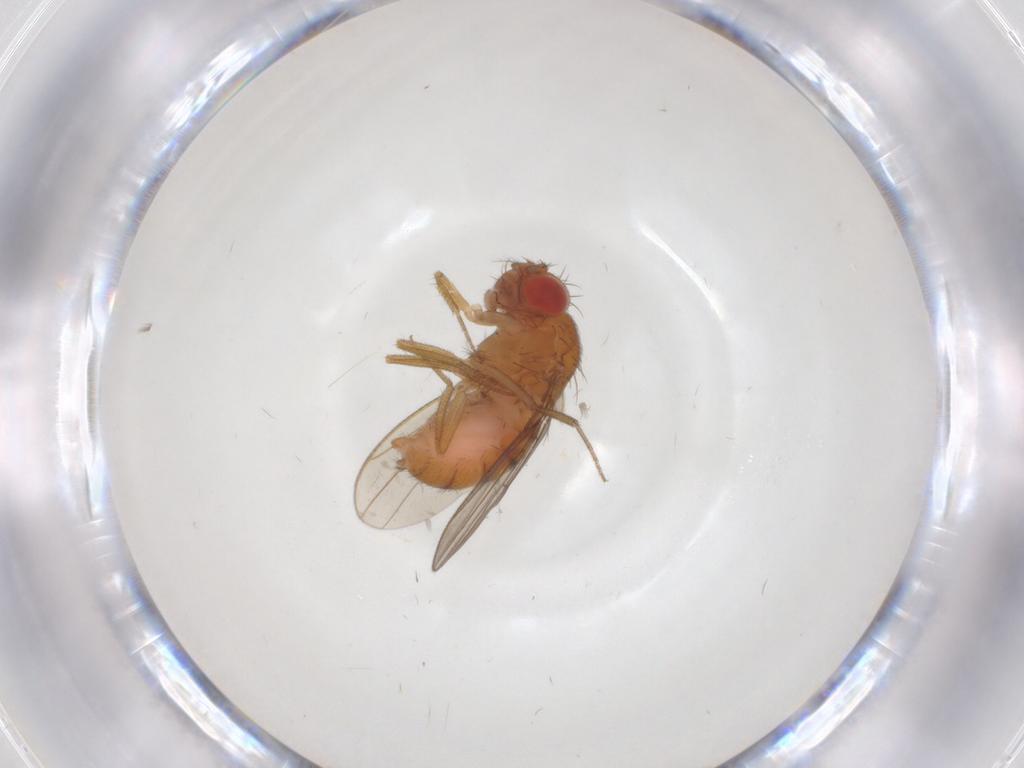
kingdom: Animalia
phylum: Arthropoda
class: Insecta
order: Diptera
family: Drosophilidae
